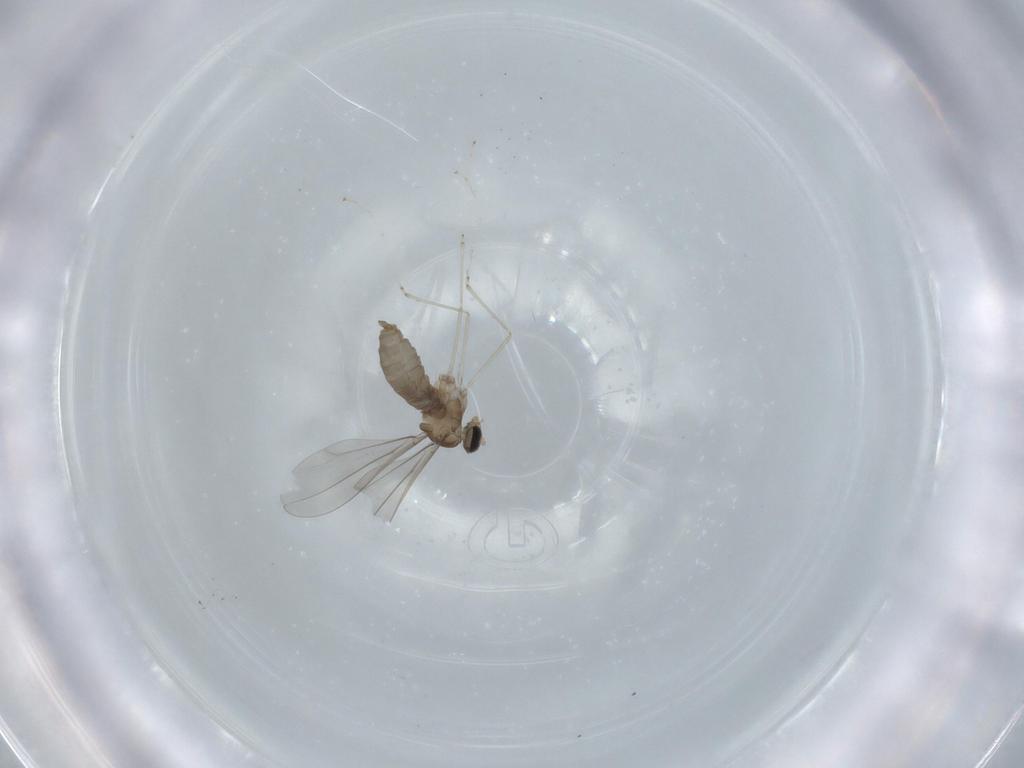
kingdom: Animalia
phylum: Arthropoda
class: Insecta
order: Diptera
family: Cecidomyiidae
